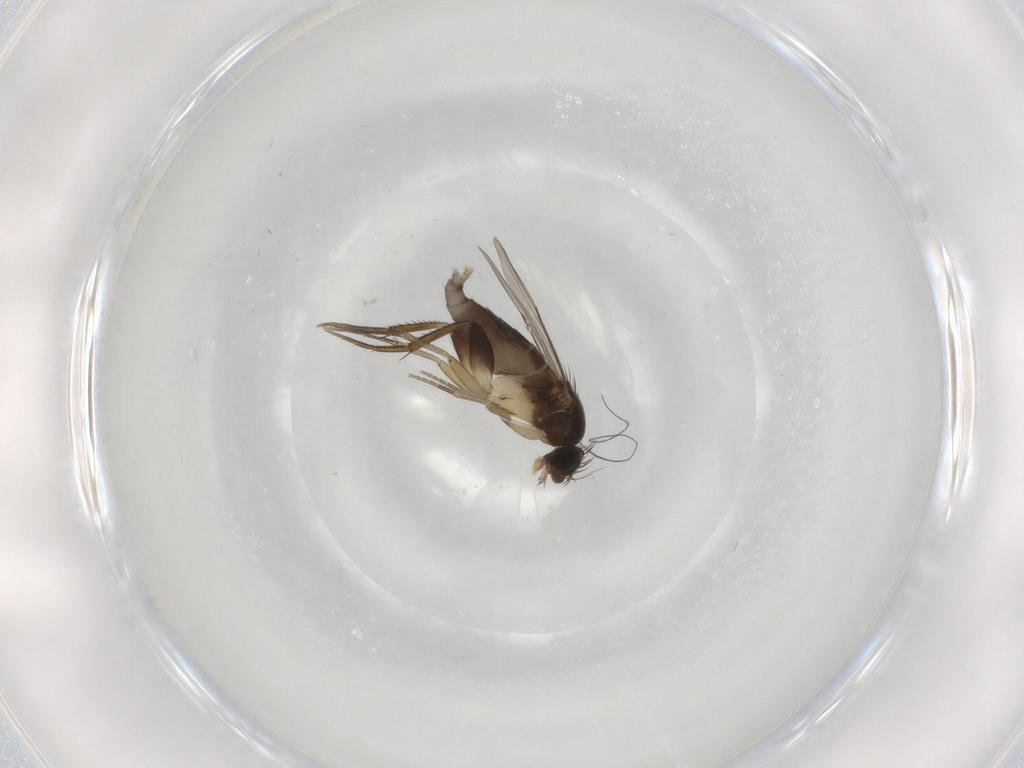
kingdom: Animalia
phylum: Arthropoda
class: Insecta
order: Diptera
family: Phoridae
